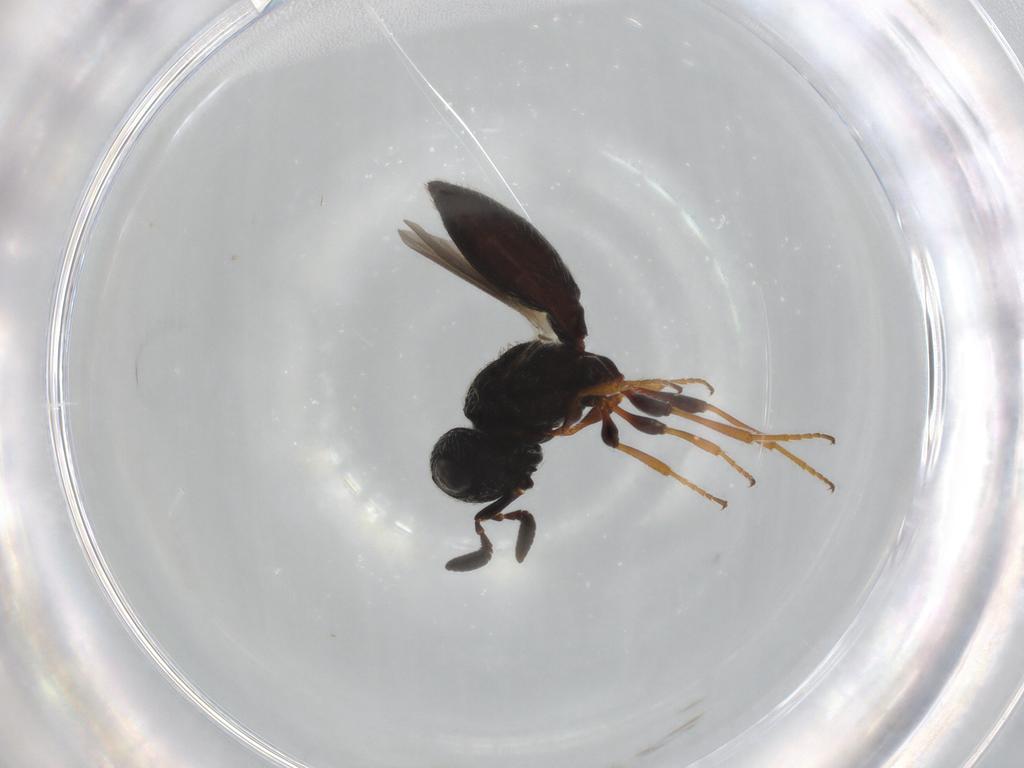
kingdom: Animalia
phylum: Arthropoda
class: Insecta
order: Hymenoptera
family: Scelionidae
